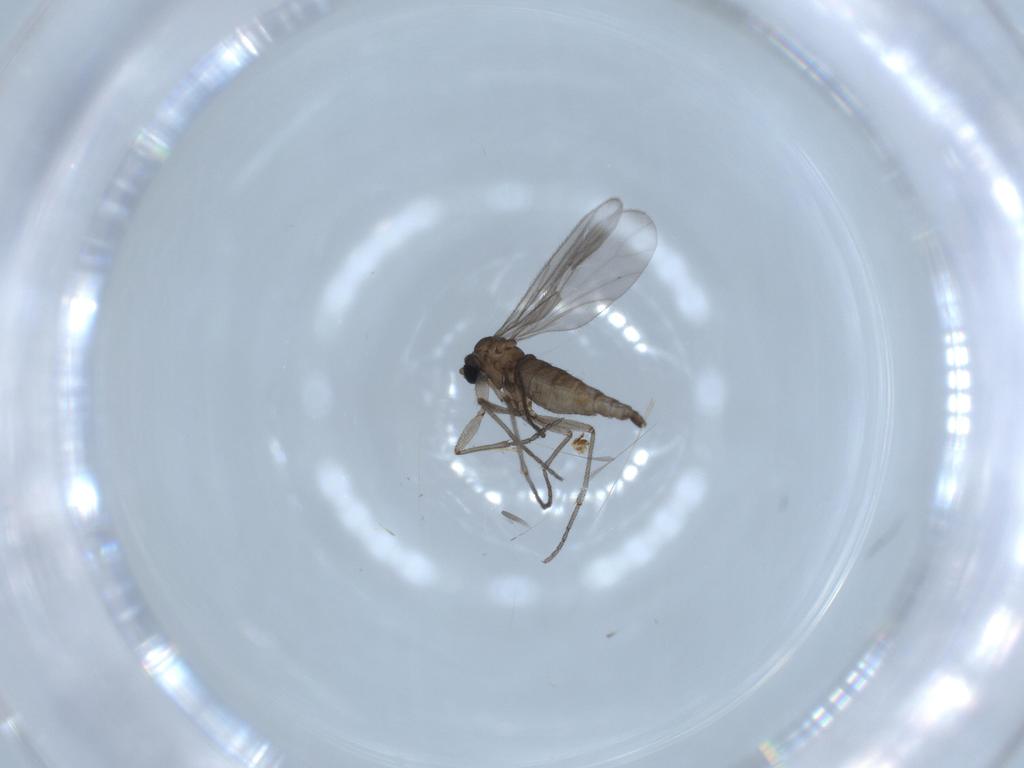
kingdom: Animalia
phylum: Arthropoda
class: Insecta
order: Diptera
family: Sciaridae
